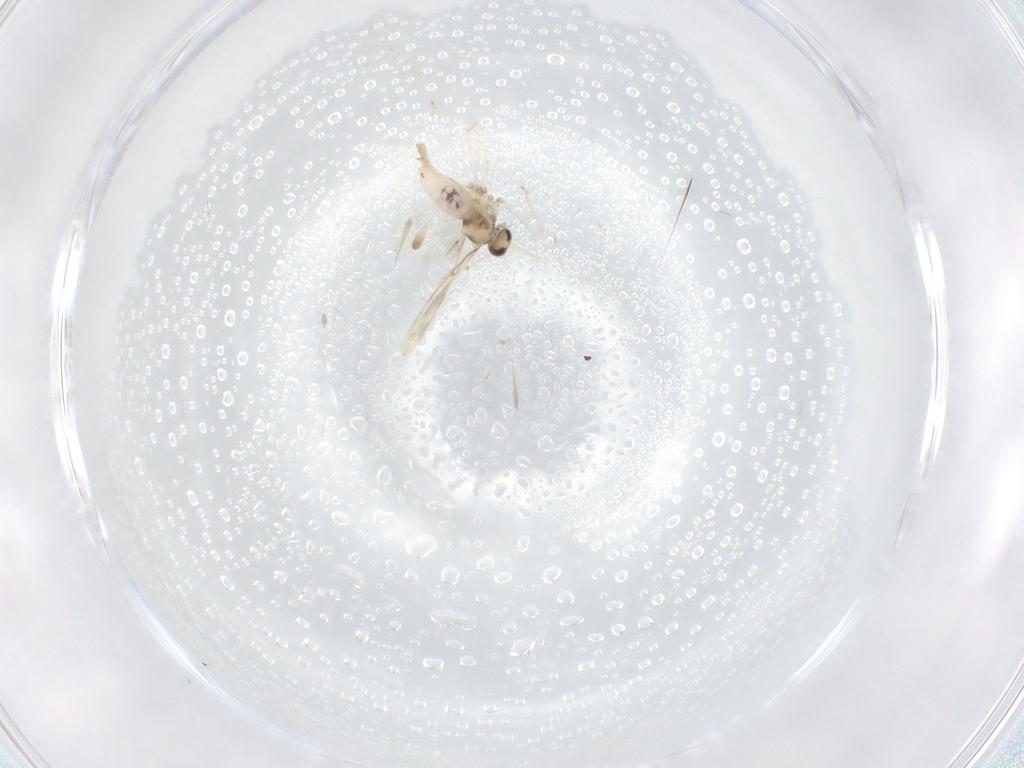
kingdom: Animalia
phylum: Arthropoda
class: Insecta
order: Diptera
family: Cecidomyiidae
